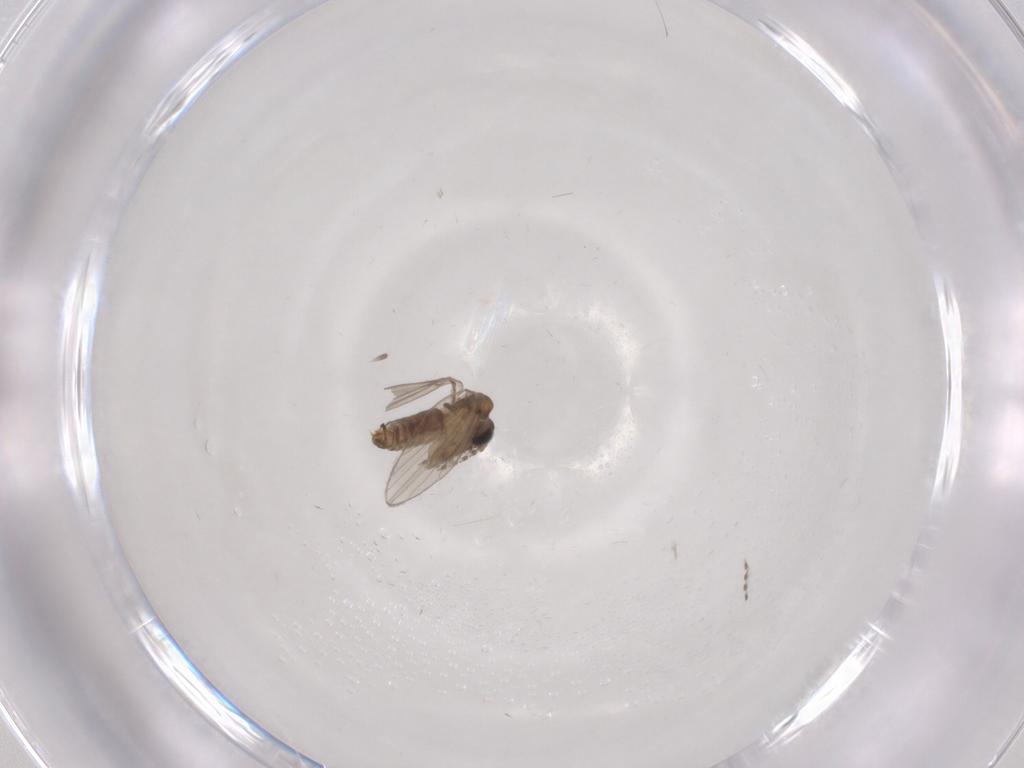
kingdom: Animalia
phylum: Arthropoda
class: Insecta
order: Diptera
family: Psychodidae
